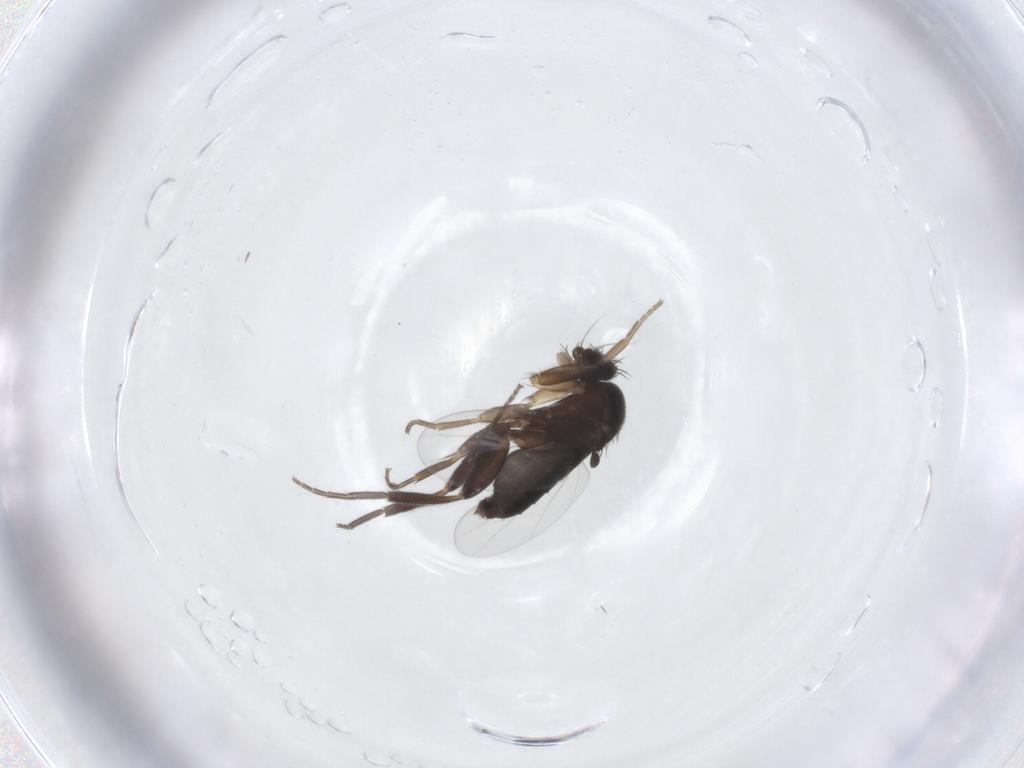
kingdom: Animalia
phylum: Arthropoda
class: Insecta
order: Diptera
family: Phoridae
